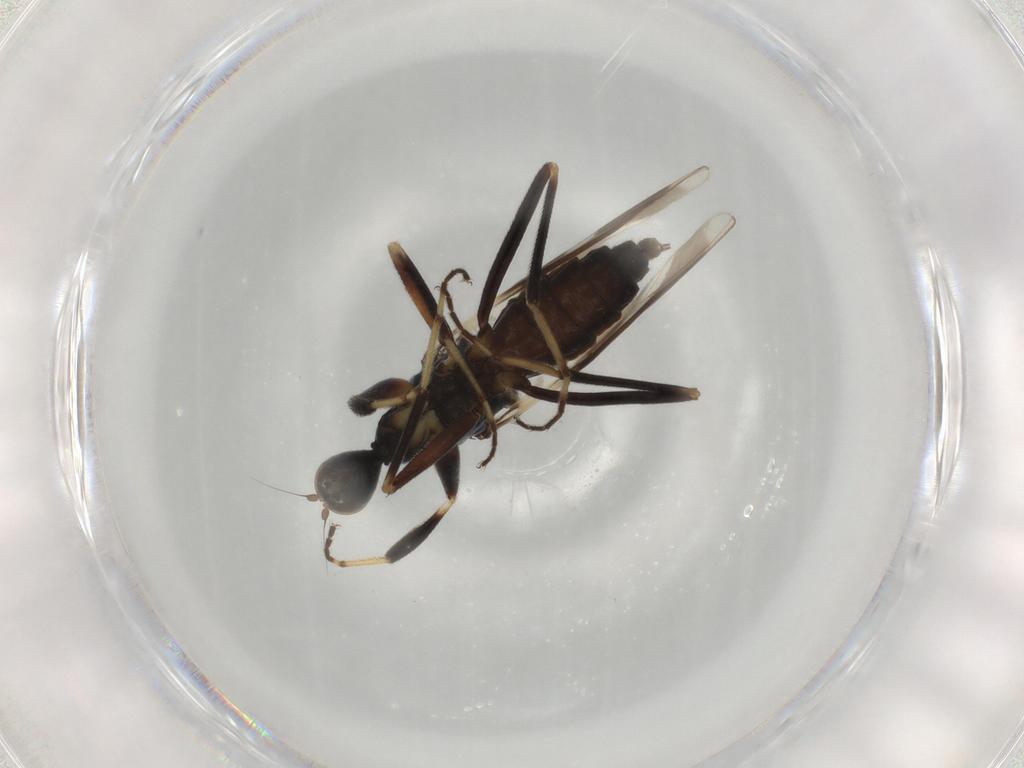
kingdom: Animalia
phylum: Arthropoda
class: Insecta
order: Diptera
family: Hybotidae
